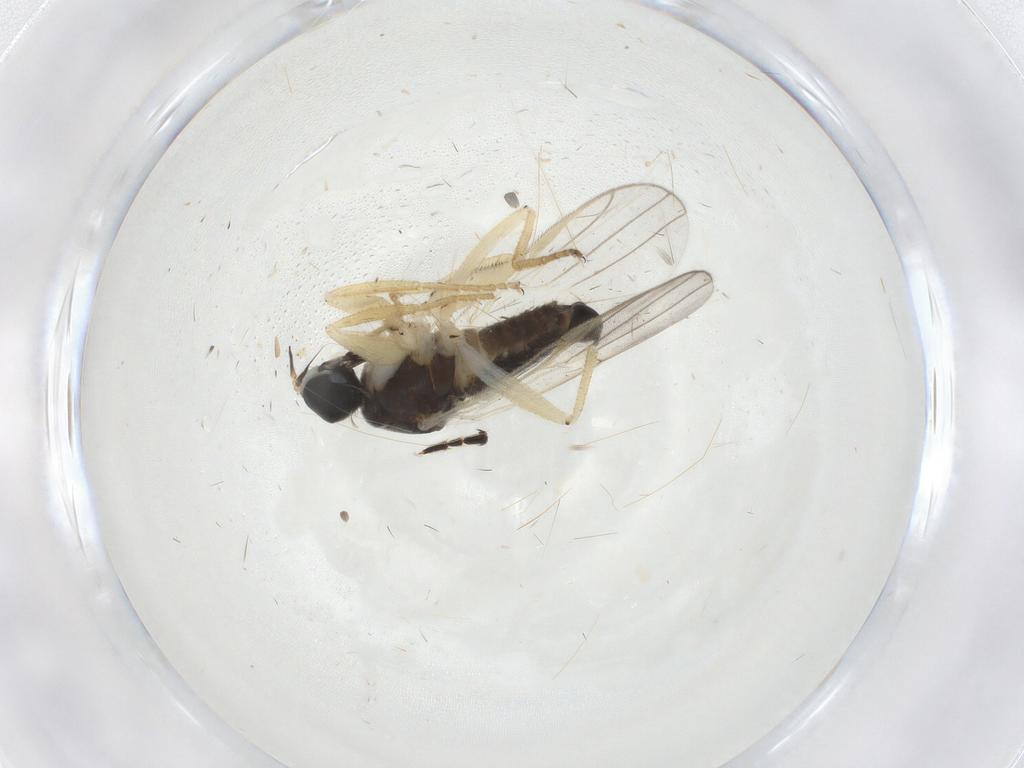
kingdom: Animalia
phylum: Arthropoda
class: Insecta
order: Diptera
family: Hybotidae
